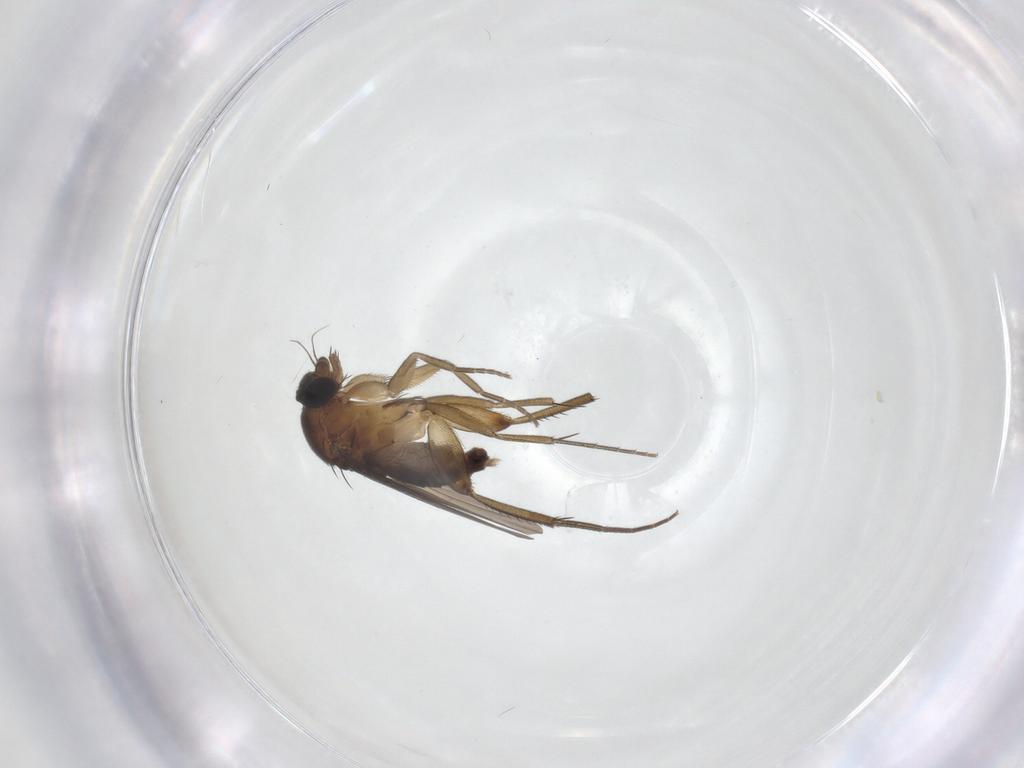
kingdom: Animalia
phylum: Arthropoda
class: Insecta
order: Diptera
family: Phoridae
